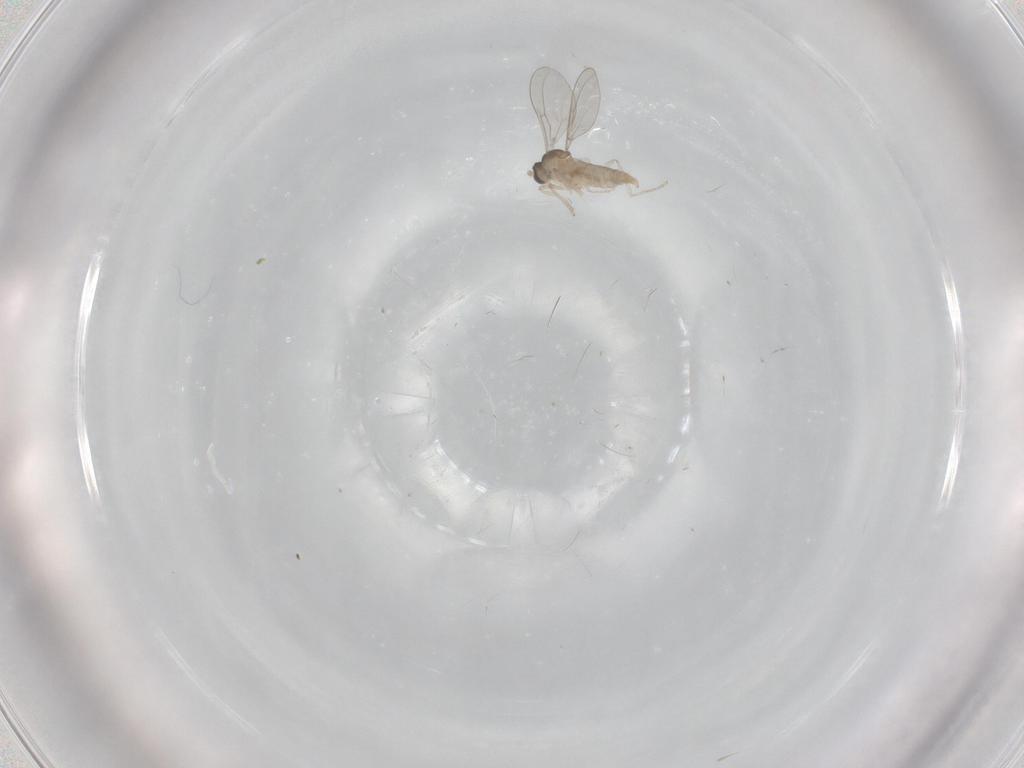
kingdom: Animalia
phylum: Arthropoda
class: Insecta
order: Diptera
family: Cecidomyiidae
